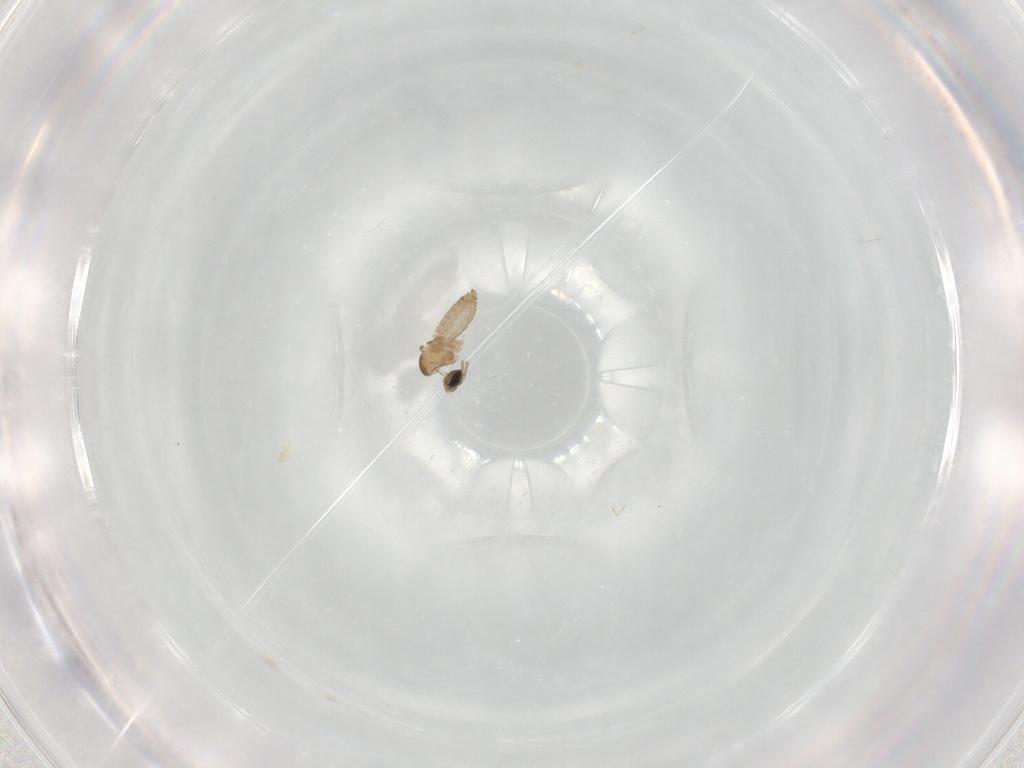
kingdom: Animalia
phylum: Arthropoda
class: Insecta
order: Diptera
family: Cecidomyiidae
